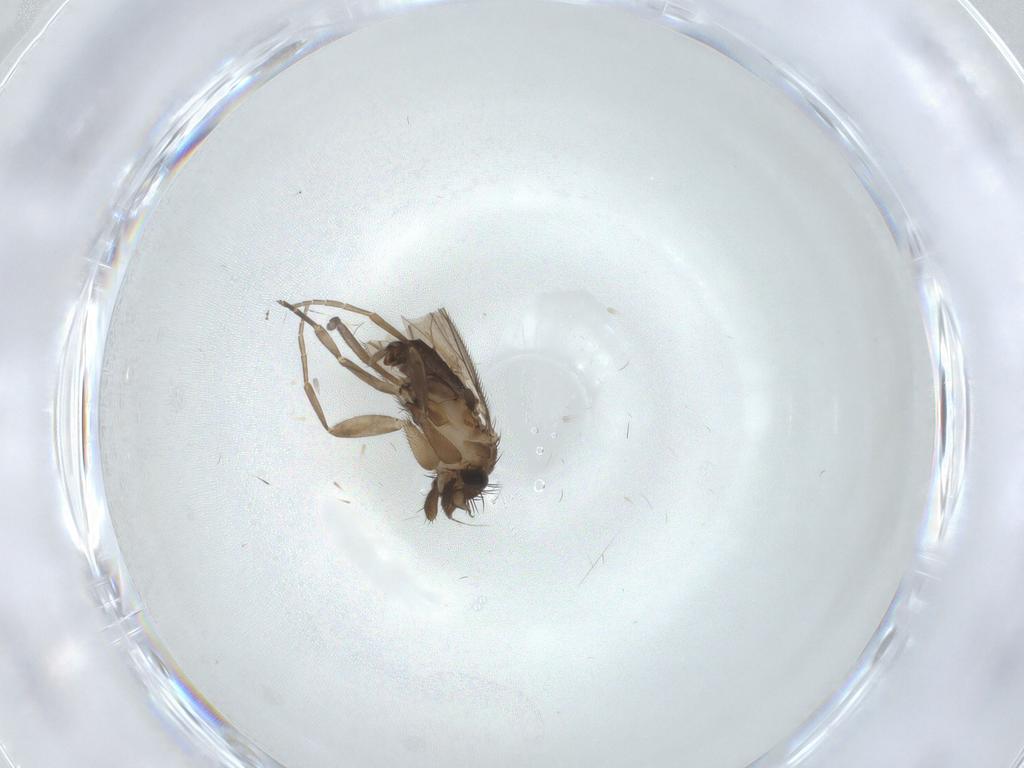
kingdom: Animalia
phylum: Arthropoda
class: Insecta
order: Diptera
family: Phoridae
